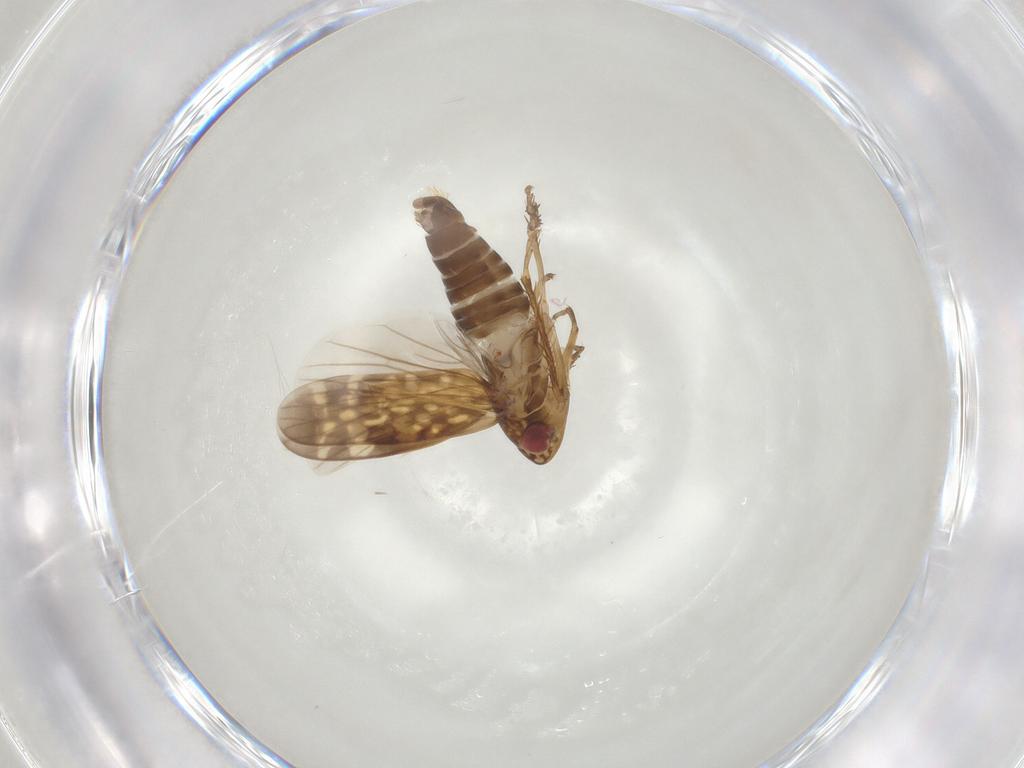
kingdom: Animalia
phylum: Arthropoda
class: Insecta
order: Hemiptera
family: Cicadellidae
